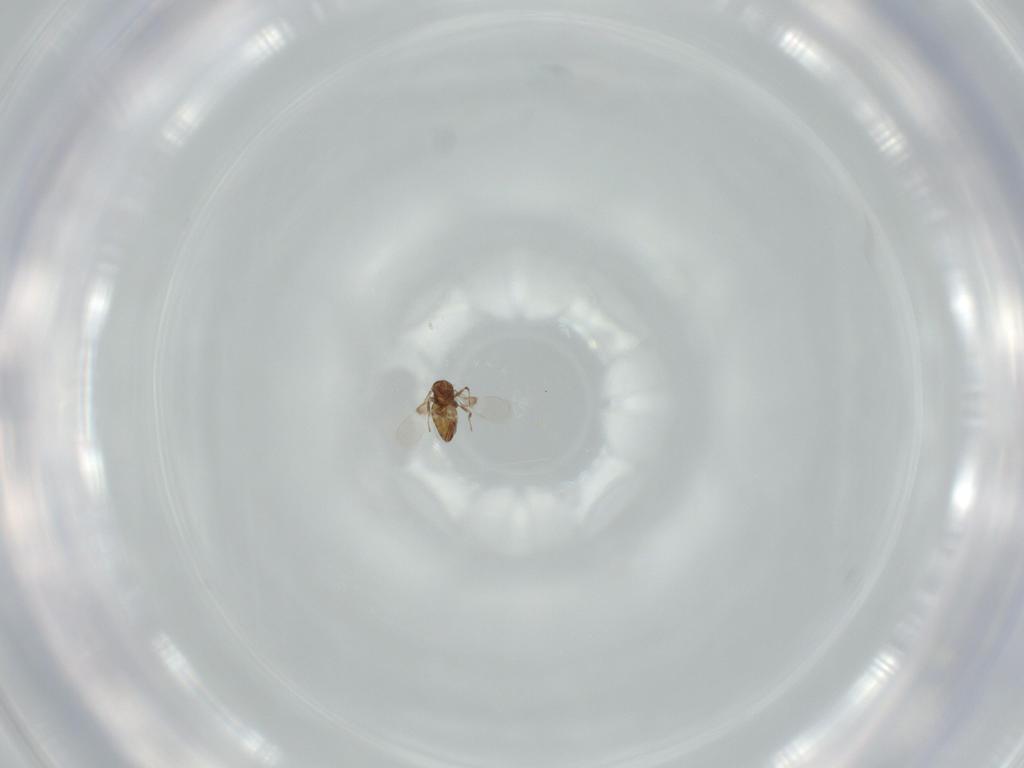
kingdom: Animalia
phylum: Arthropoda
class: Insecta
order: Hymenoptera
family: Trichogrammatidae
